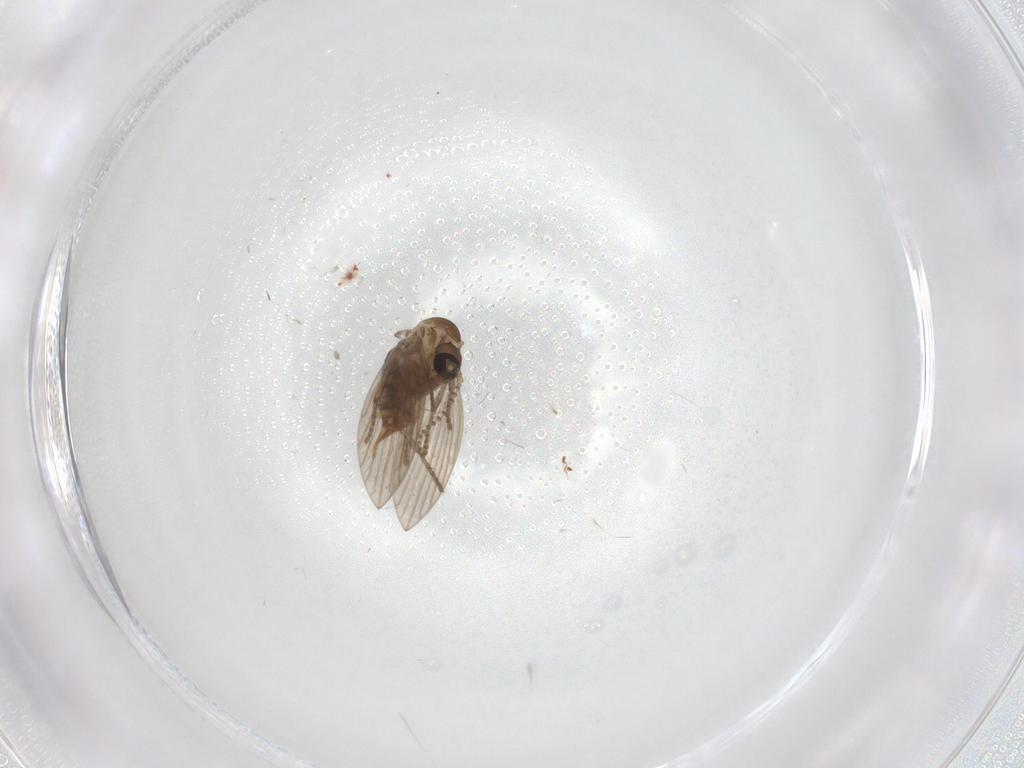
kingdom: Animalia
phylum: Arthropoda
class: Insecta
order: Diptera
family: Ceratopogonidae
